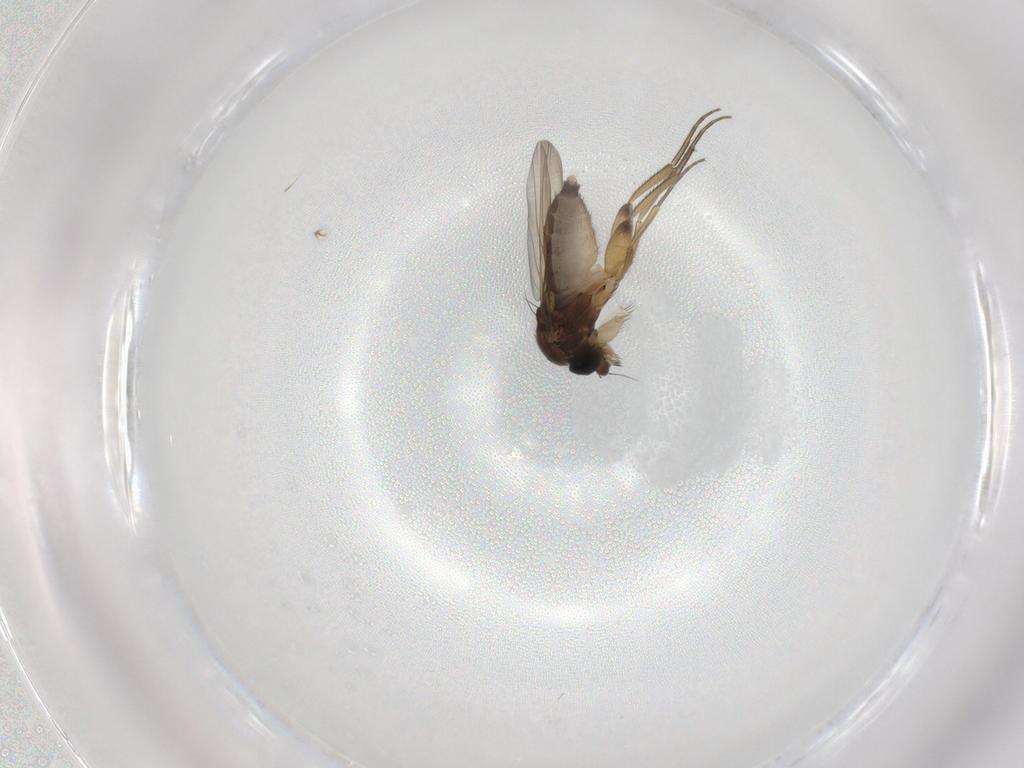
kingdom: Animalia
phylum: Arthropoda
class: Insecta
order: Diptera
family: Phoridae
